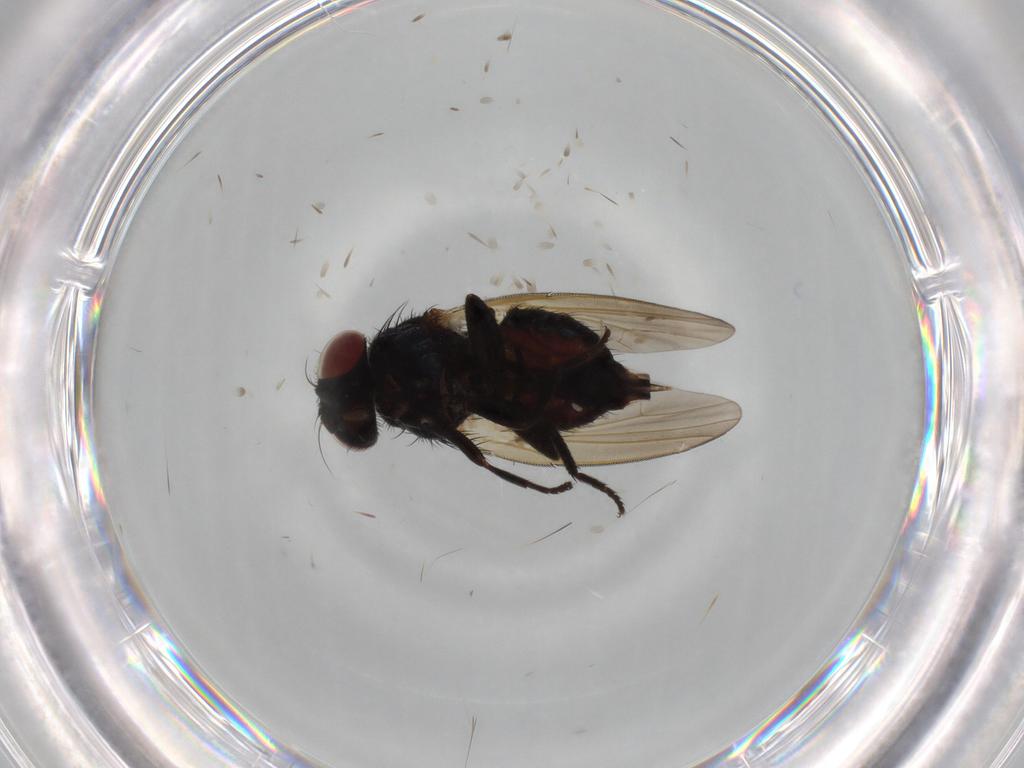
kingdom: Animalia
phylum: Arthropoda
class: Insecta
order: Diptera
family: Lonchaeidae
